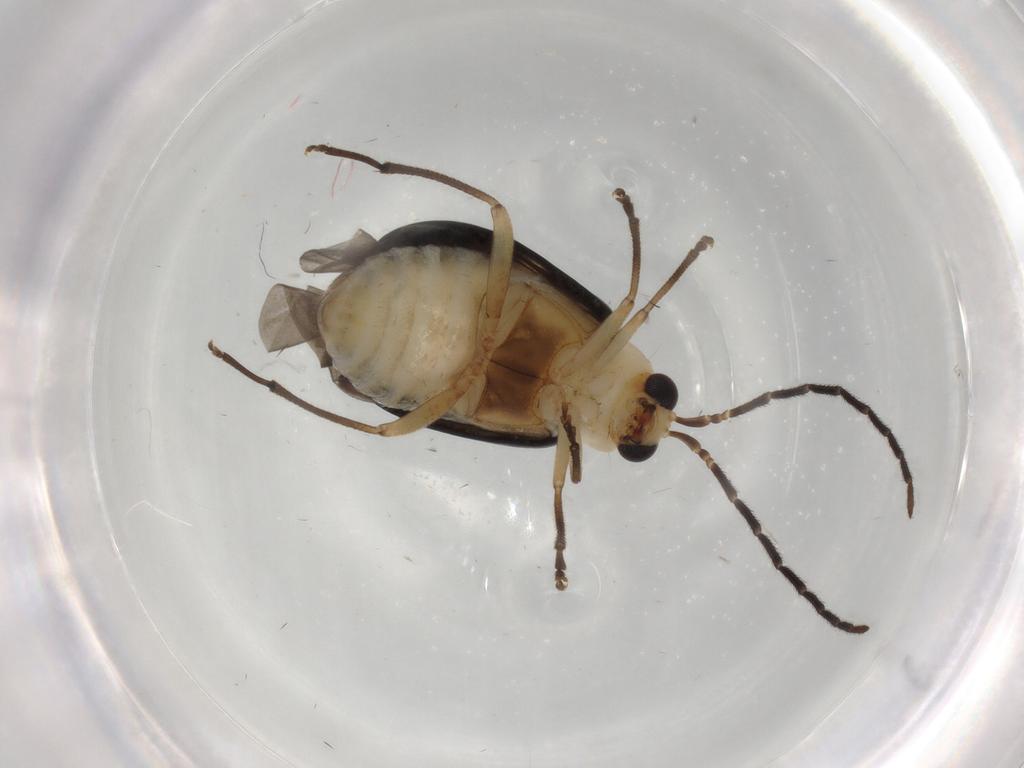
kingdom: Animalia
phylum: Arthropoda
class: Insecta
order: Coleoptera
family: Chrysomelidae
